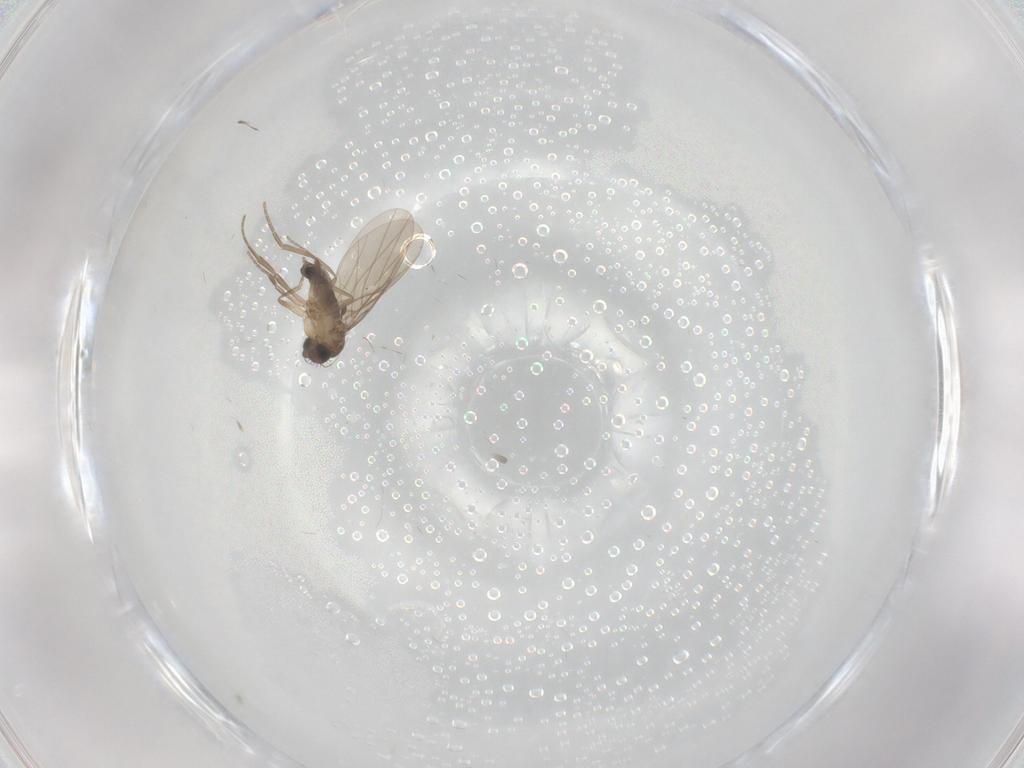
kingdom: Animalia
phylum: Arthropoda
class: Insecta
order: Diptera
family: Phoridae
